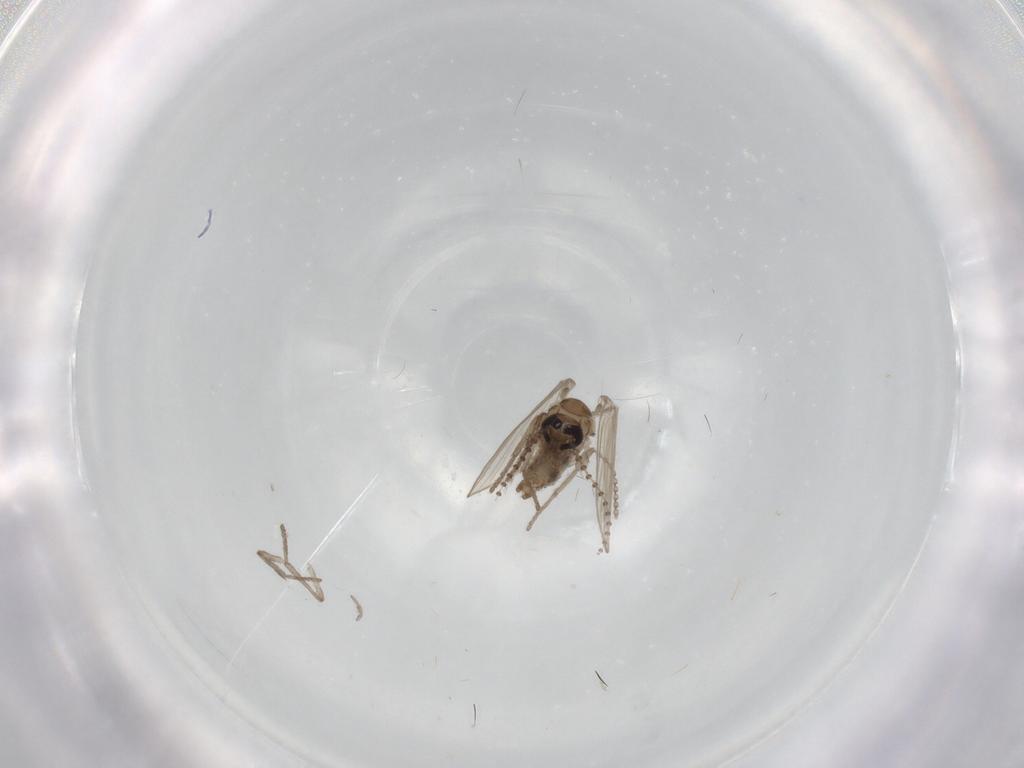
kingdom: Animalia
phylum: Arthropoda
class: Insecta
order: Diptera
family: Psychodidae
